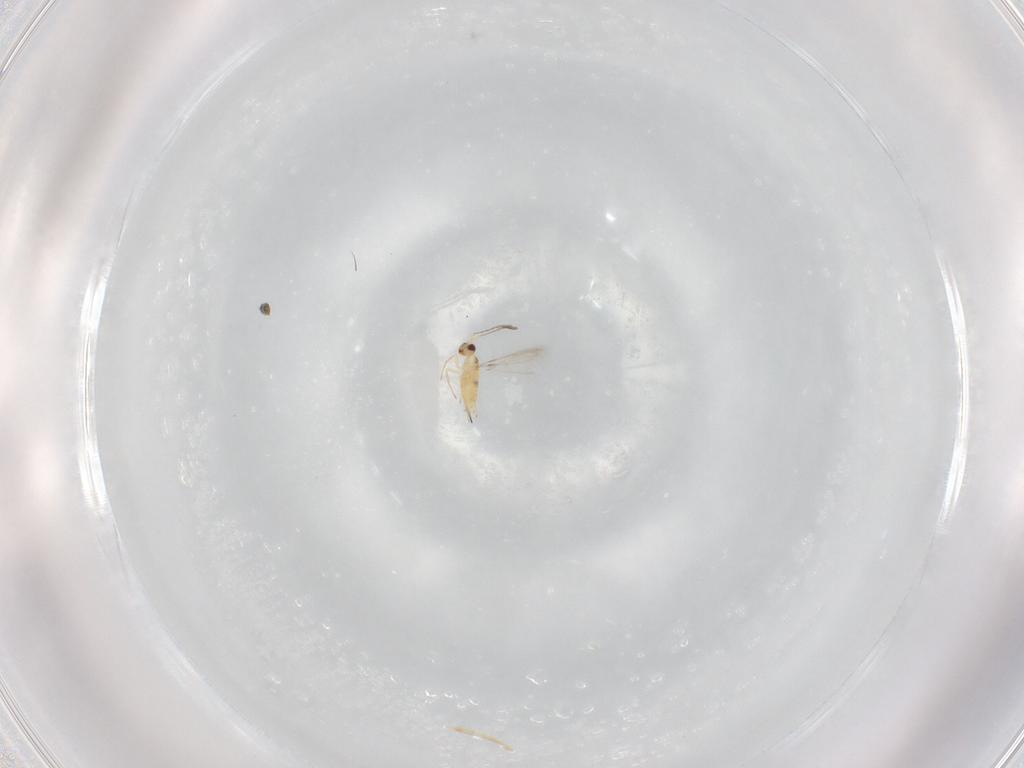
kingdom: Animalia
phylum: Arthropoda
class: Insecta
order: Hymenoptera
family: Mymaridae
